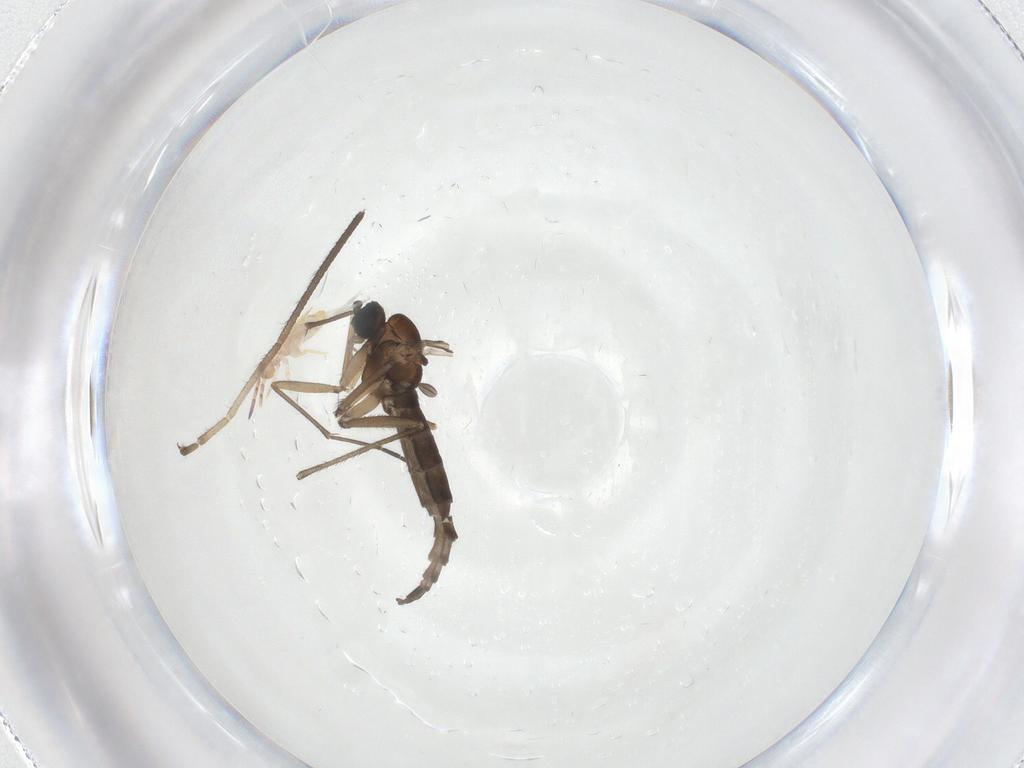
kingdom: Animalia
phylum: Arthropoda
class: Insecta
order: Diptera
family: Sciaridae
